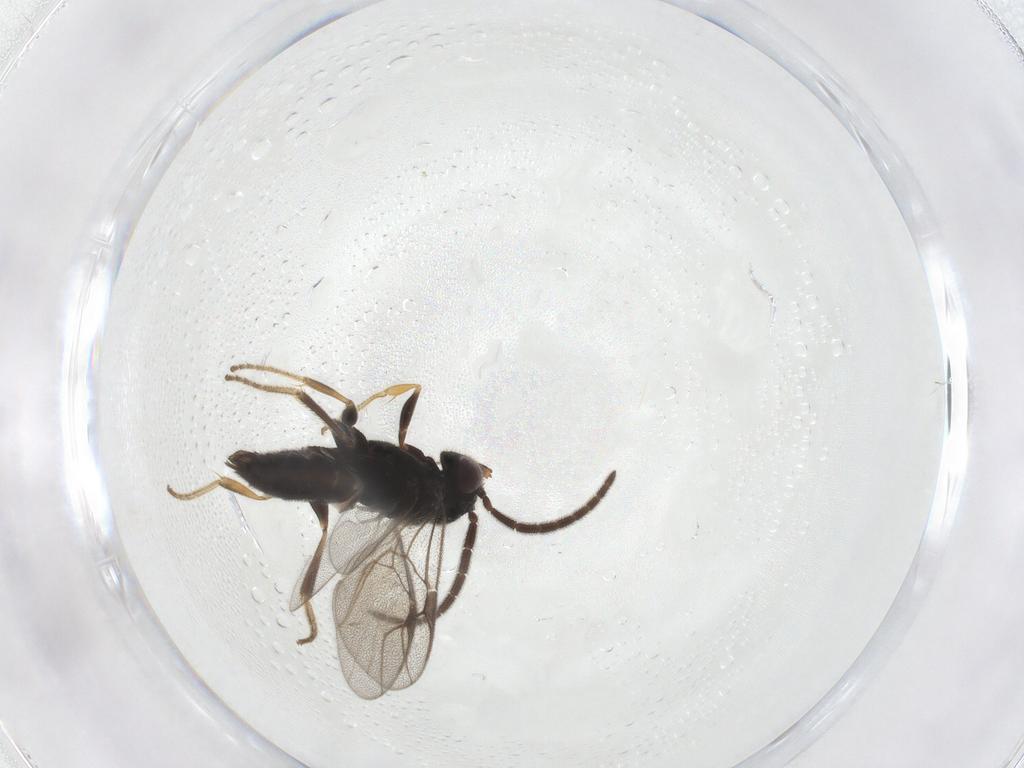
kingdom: Animalia
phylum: Arthropoda
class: Insecta
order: Hymenoptera
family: Dryinidae
